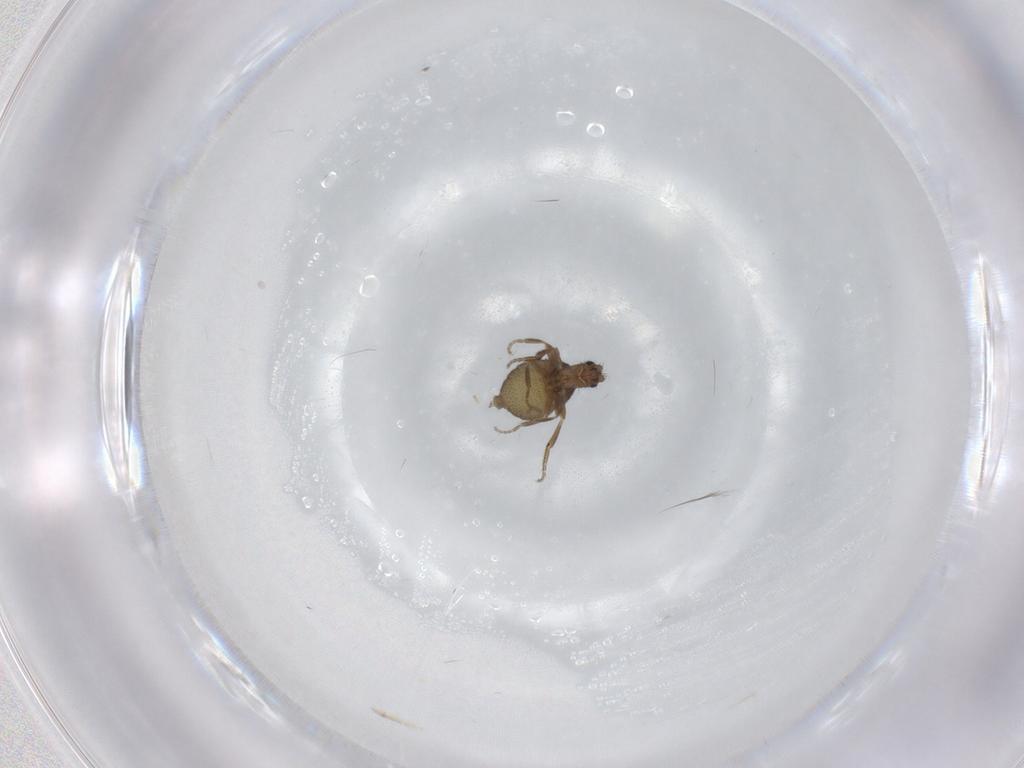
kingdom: Animalia
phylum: Arthropoda
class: Insecta
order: Diptera
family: Phoridae
